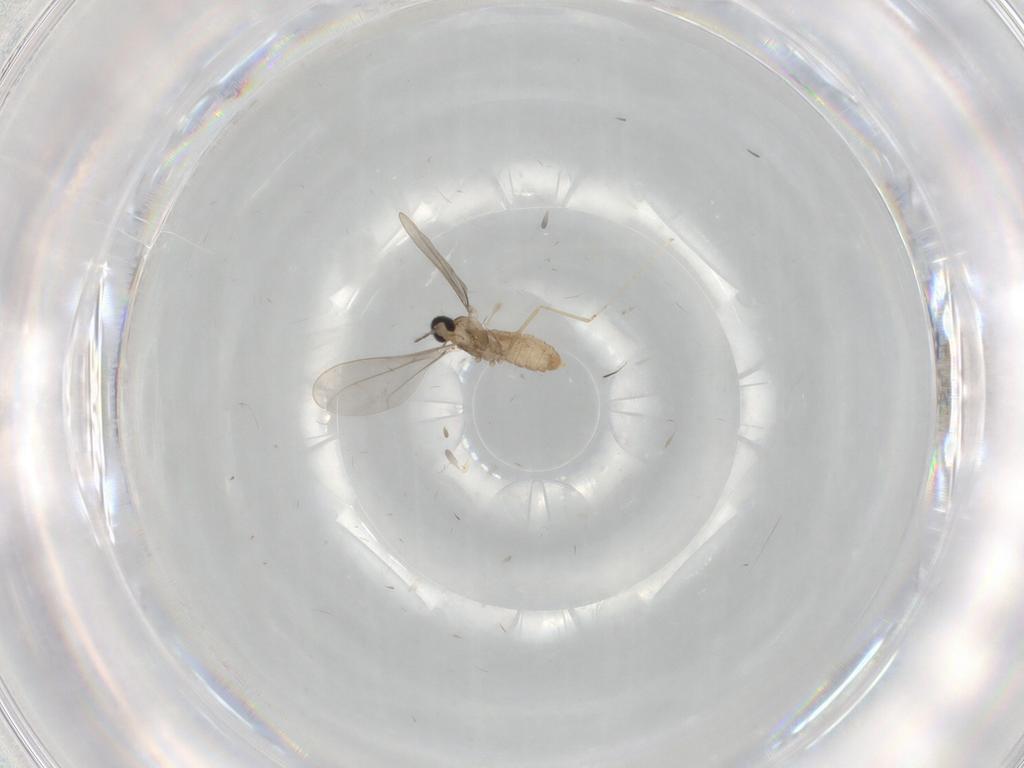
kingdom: Animalia
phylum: Arthropoda
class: Insecta
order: Diptera
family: Cecidomyiidae
